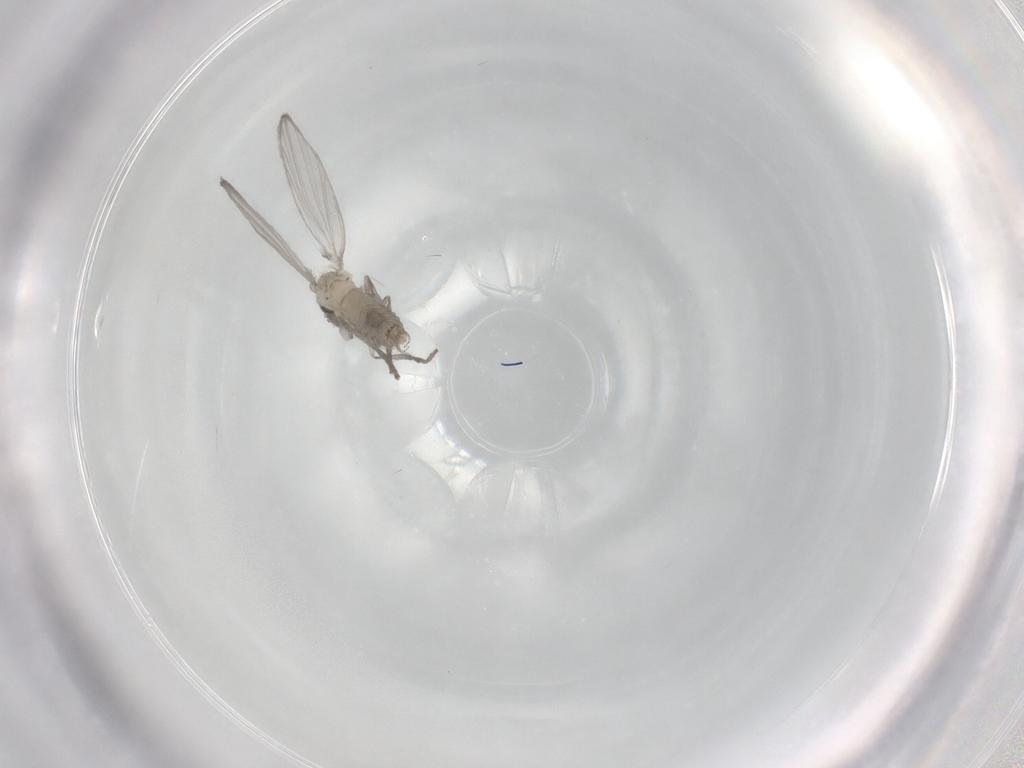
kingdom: Animalia
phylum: Arthropoda
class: Insecta
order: Diptera
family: Psychodidae
